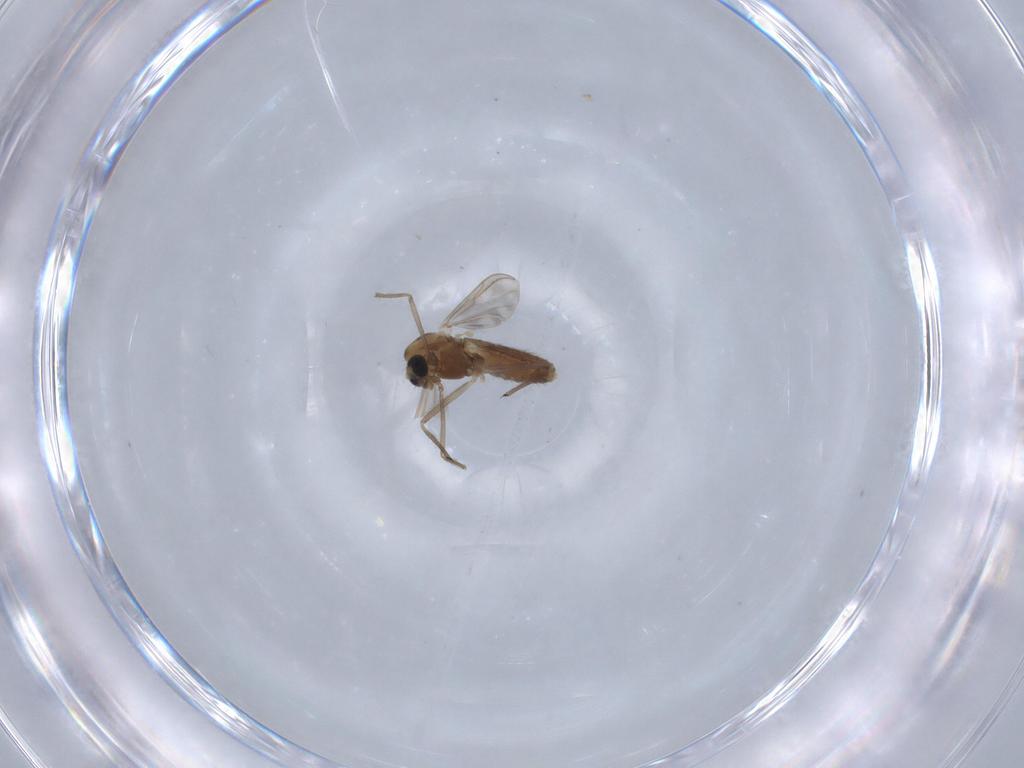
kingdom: Animalia
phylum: Arthropoda
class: Insecta
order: Diptera
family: Chironomidae
